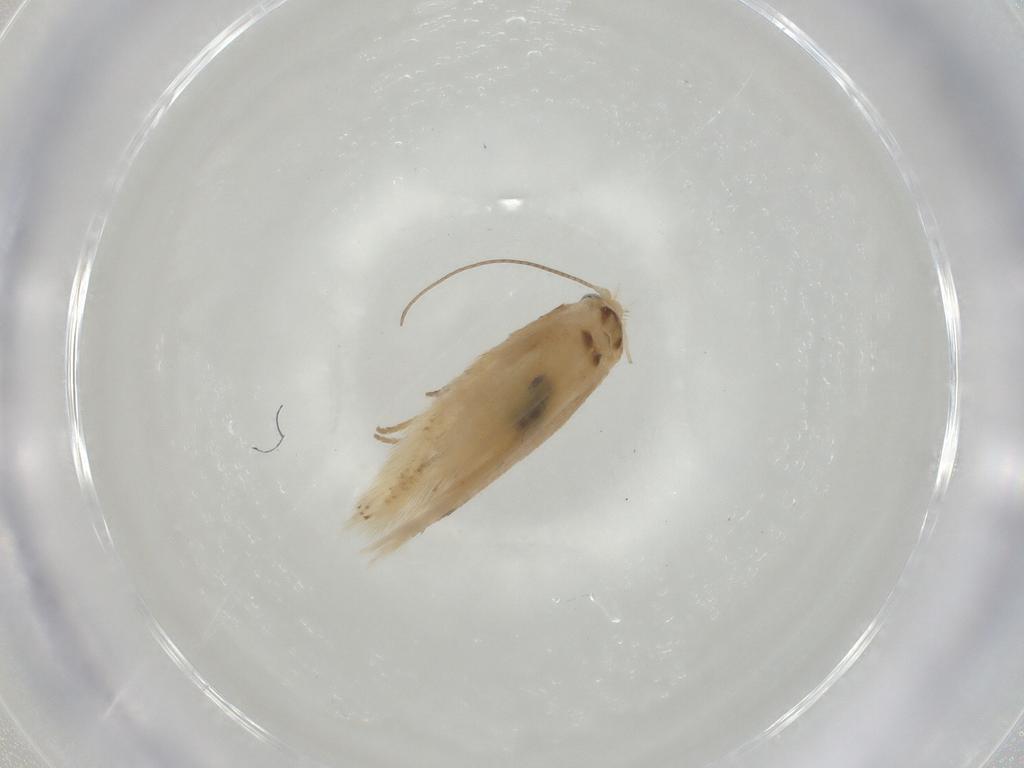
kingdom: Animalia
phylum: Arthropoda
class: Insecta
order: Lepidoptera
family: Bucculatricidae
